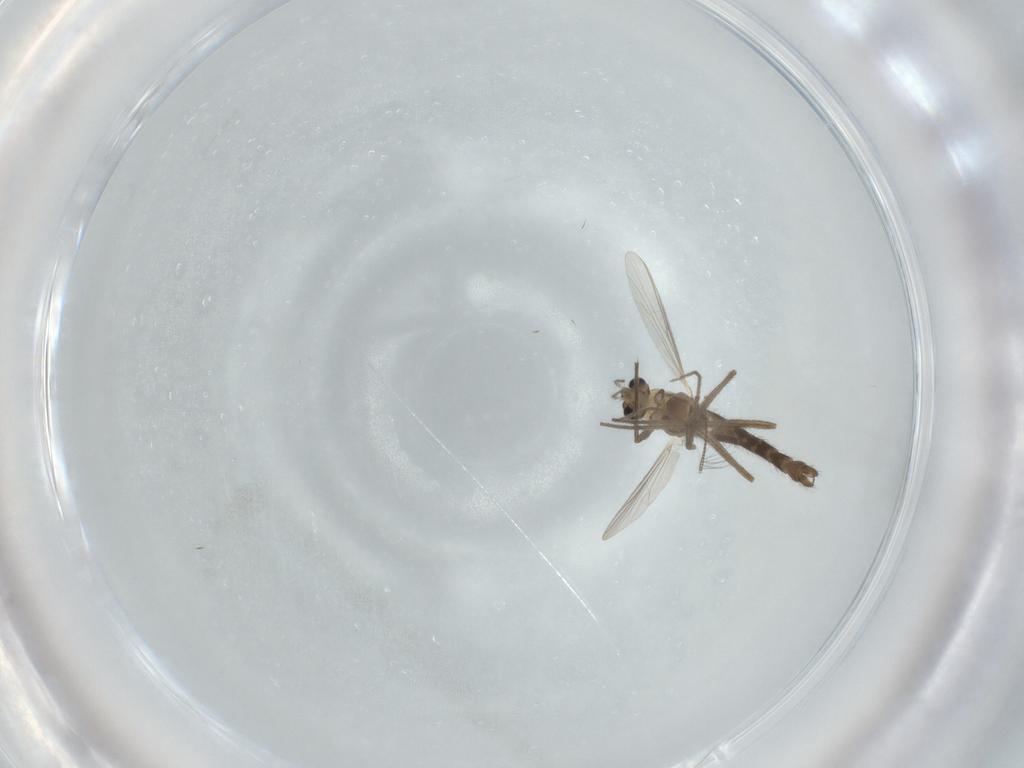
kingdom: Animalia
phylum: Arthropoda
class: Insecta
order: Diptera
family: Chironomidae
